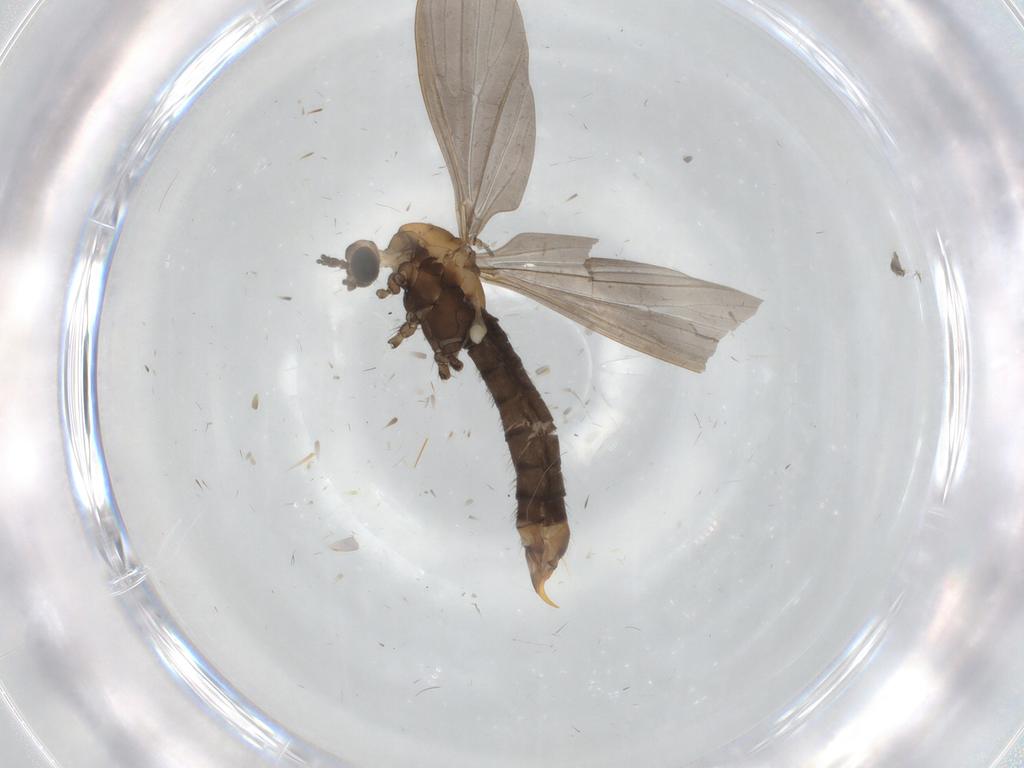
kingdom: Animalia
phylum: Arthropoda
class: Insecta
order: Diptera
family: Limoniidae
